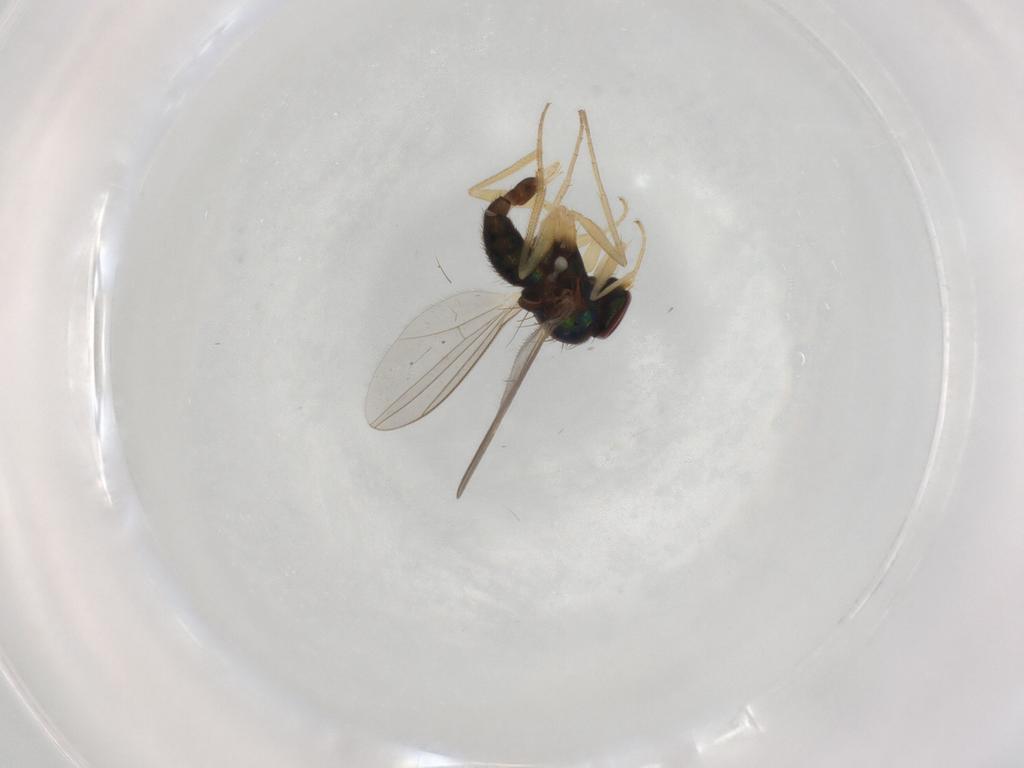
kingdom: Animalia
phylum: Arthropoda
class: Insecta
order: Diptera
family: Dolichopodidae
